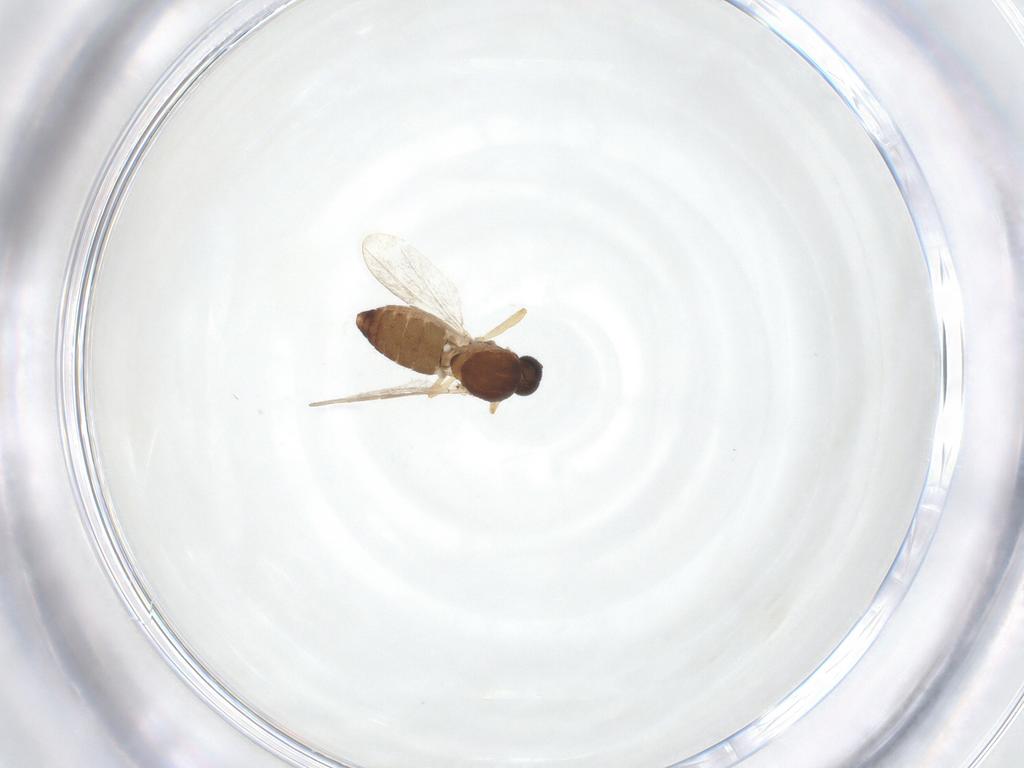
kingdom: Animalia
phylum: Arthropoda
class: Insecta
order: Diptera
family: Ceratopogonidae
